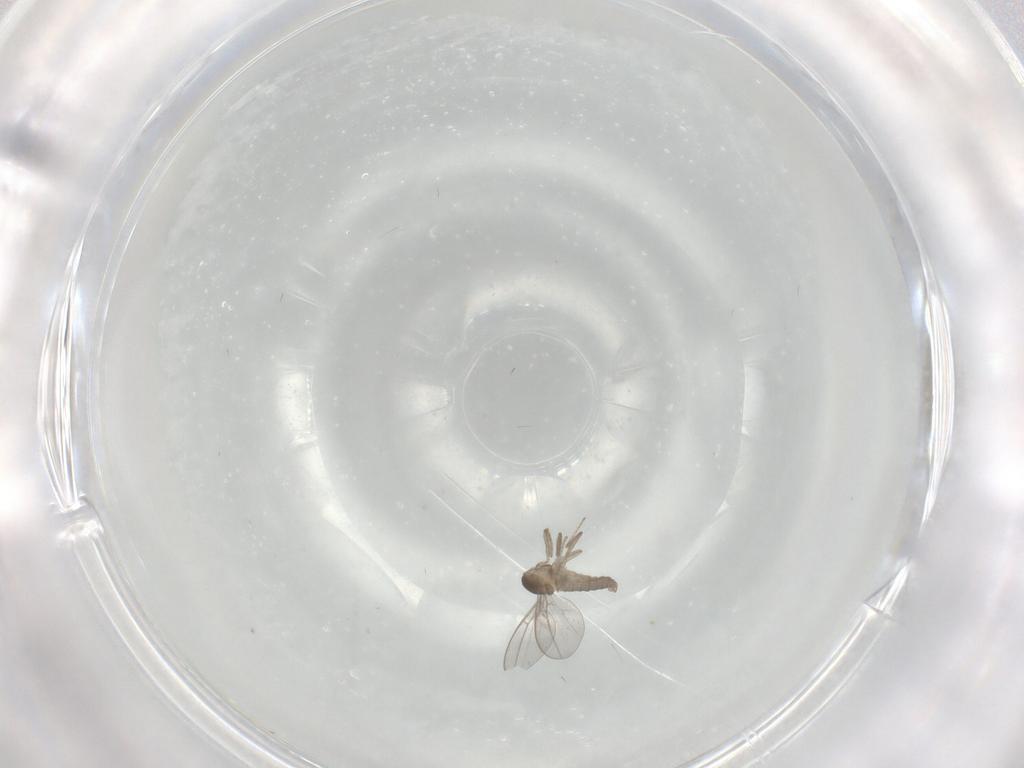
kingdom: Animalia
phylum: Arthropoda
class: Insecta
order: Diptera
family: Cecidomyiidae
